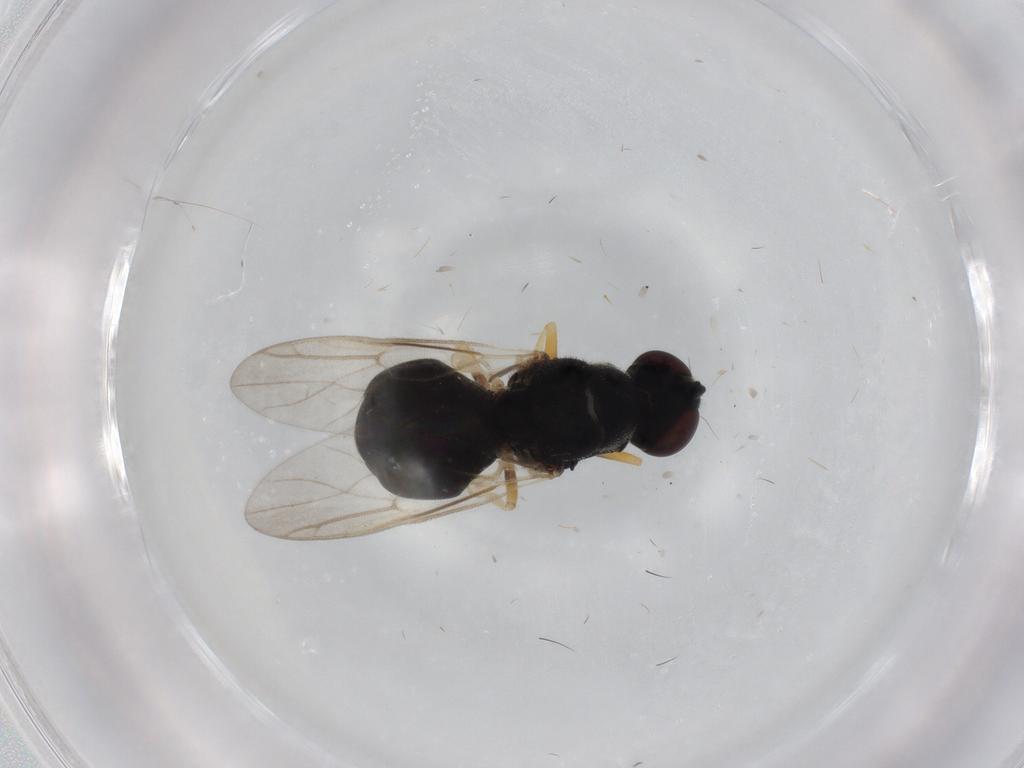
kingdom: Animalia
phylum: Arthropoda
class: Insecta
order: Diptera
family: Stratiomyidae
